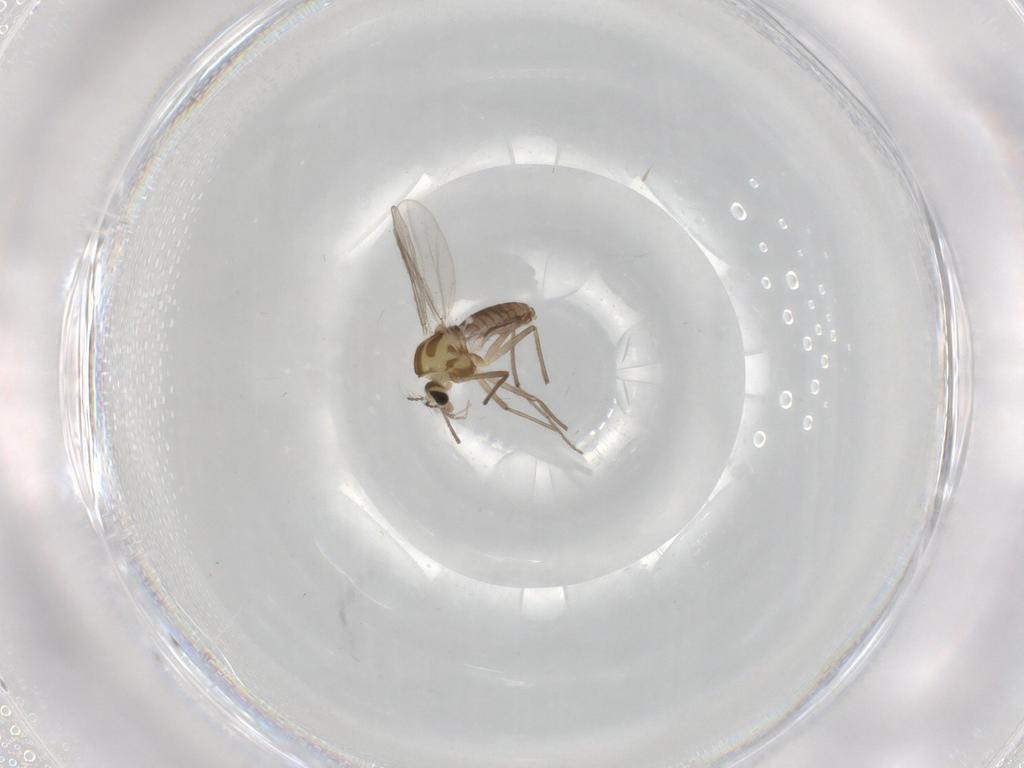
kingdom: Animalia
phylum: Arthropoda
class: Insecta
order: Diptera
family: Chironomidae
